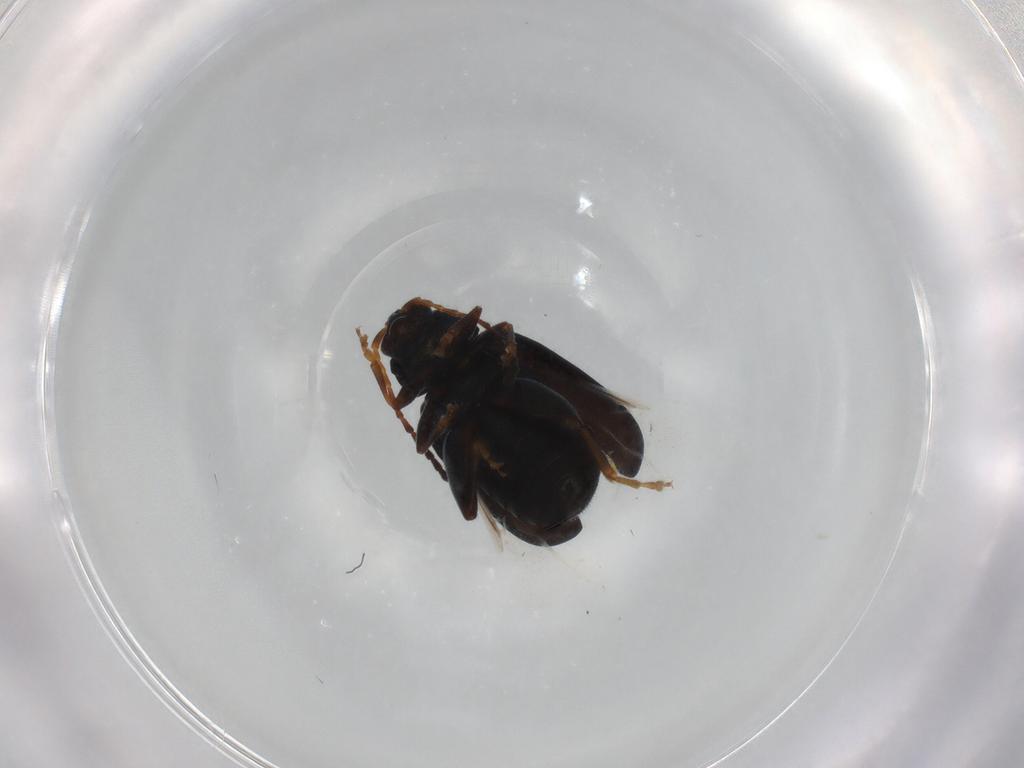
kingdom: Animalia
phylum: Arthropoda
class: Insecta
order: Coleoptera
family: Chrysomelidae
